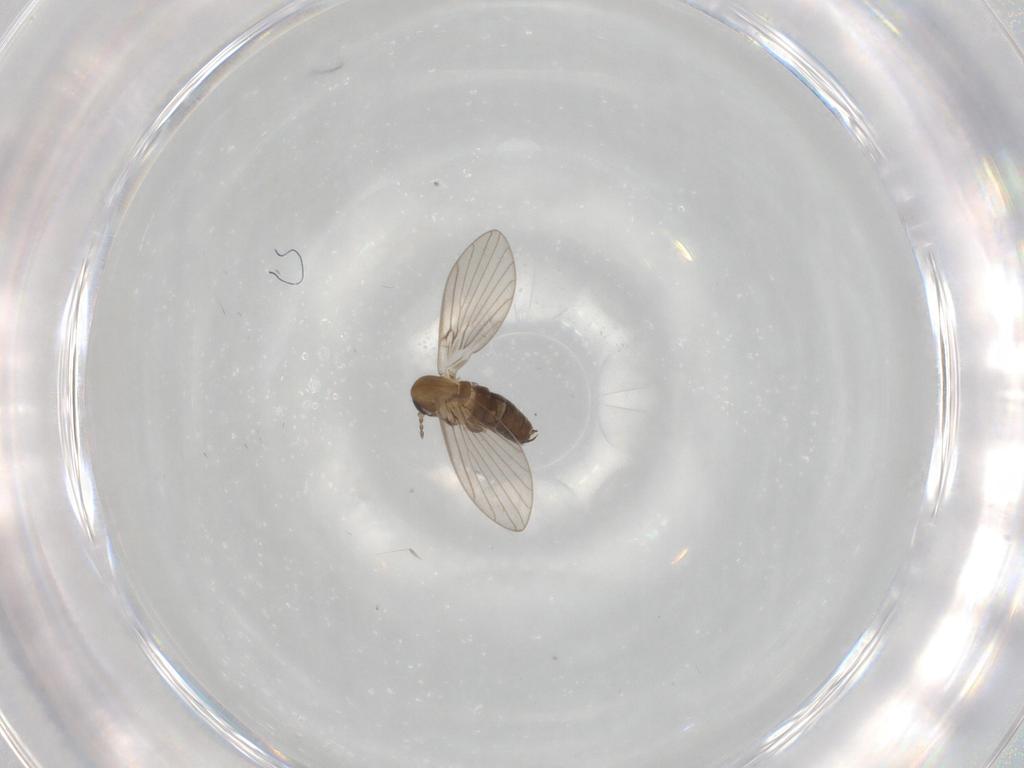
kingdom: Animalia
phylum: Arthropoda
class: Insecta
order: Diptera
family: Psychodidae
